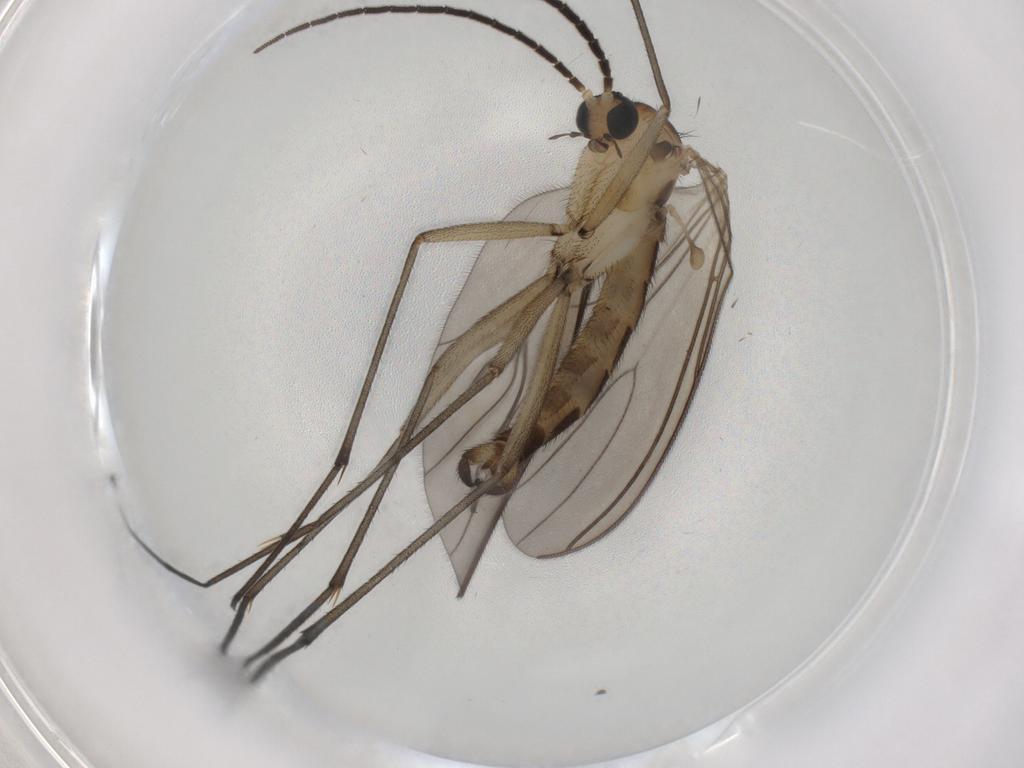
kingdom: Animalia
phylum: Arthropoda
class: Insecta
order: Diptera
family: Sciaridae
